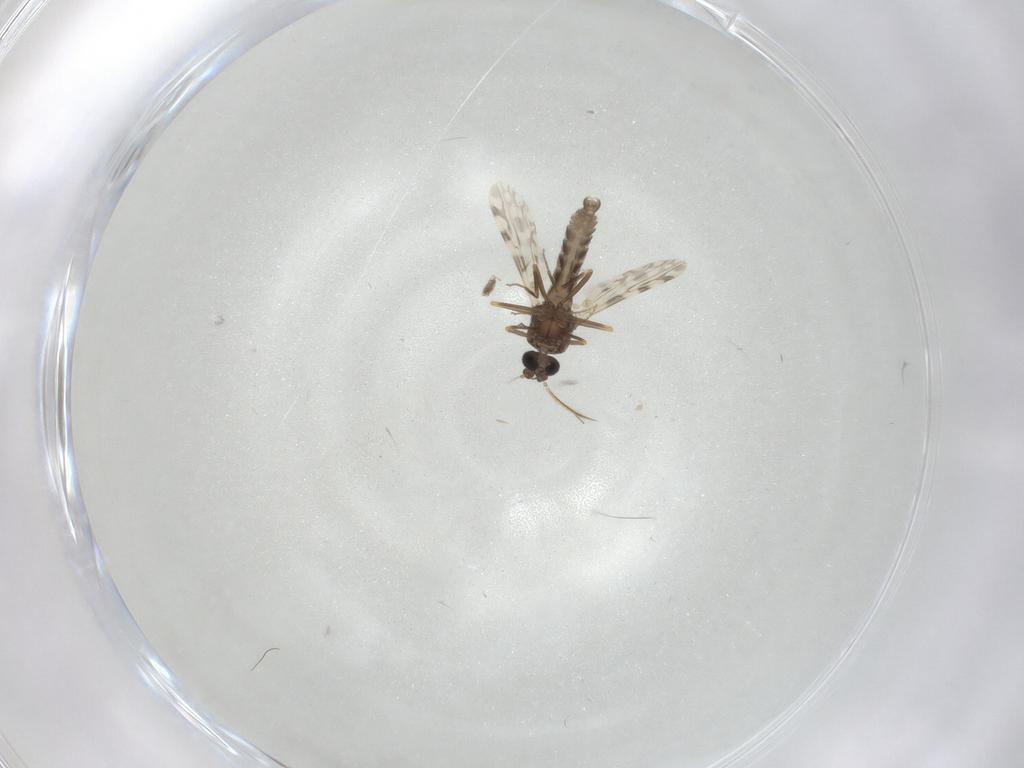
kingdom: Animalia
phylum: Arthropoda
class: Insecta
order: Diptera
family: Ceratopogonidae
